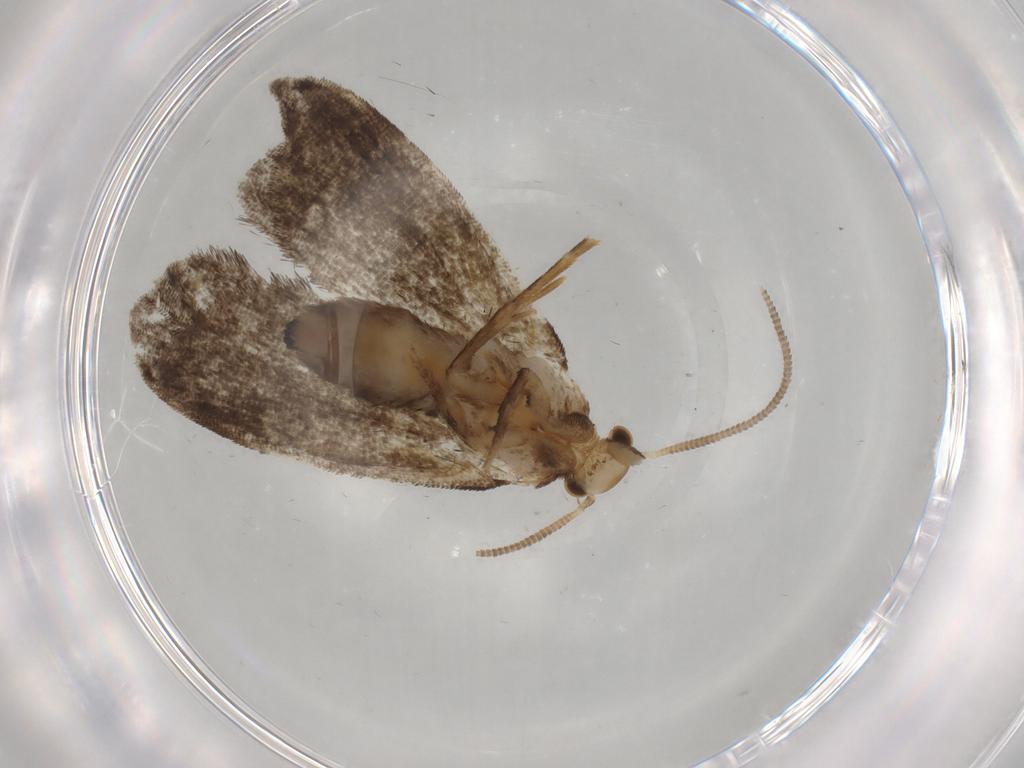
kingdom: Animalia
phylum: Arthropoda
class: Insecta
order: Lepidoptera
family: Dryadaulidae
